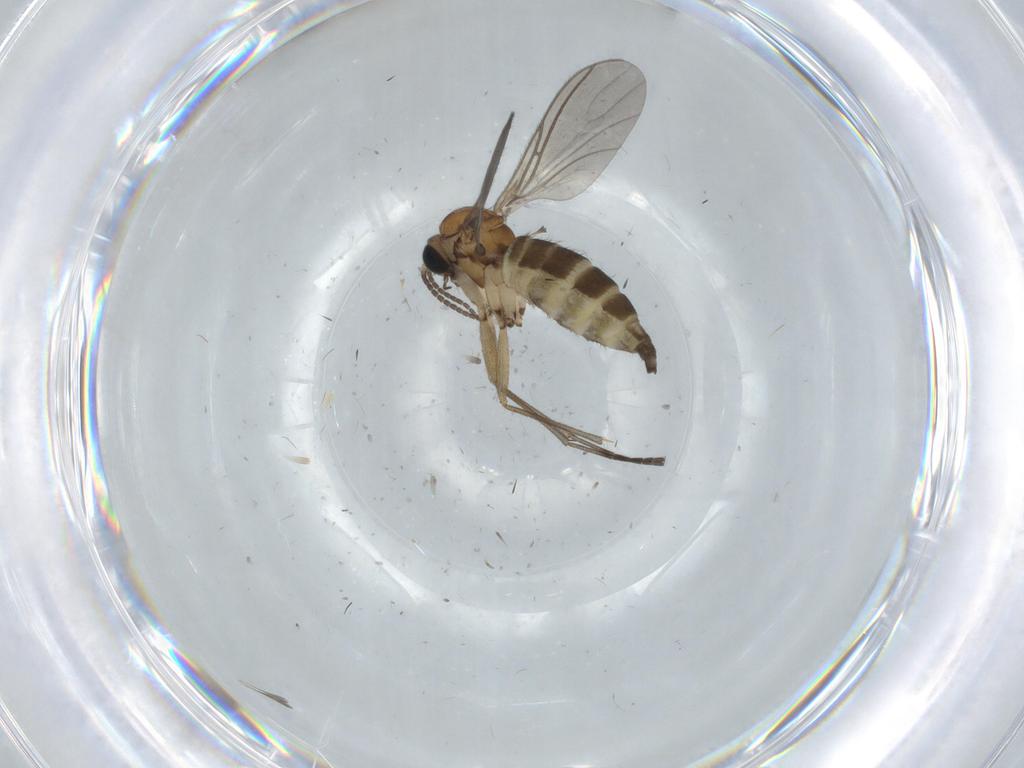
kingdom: Animalia
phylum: Arthropoda
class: Insecta
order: Diptera
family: Sciaridae
